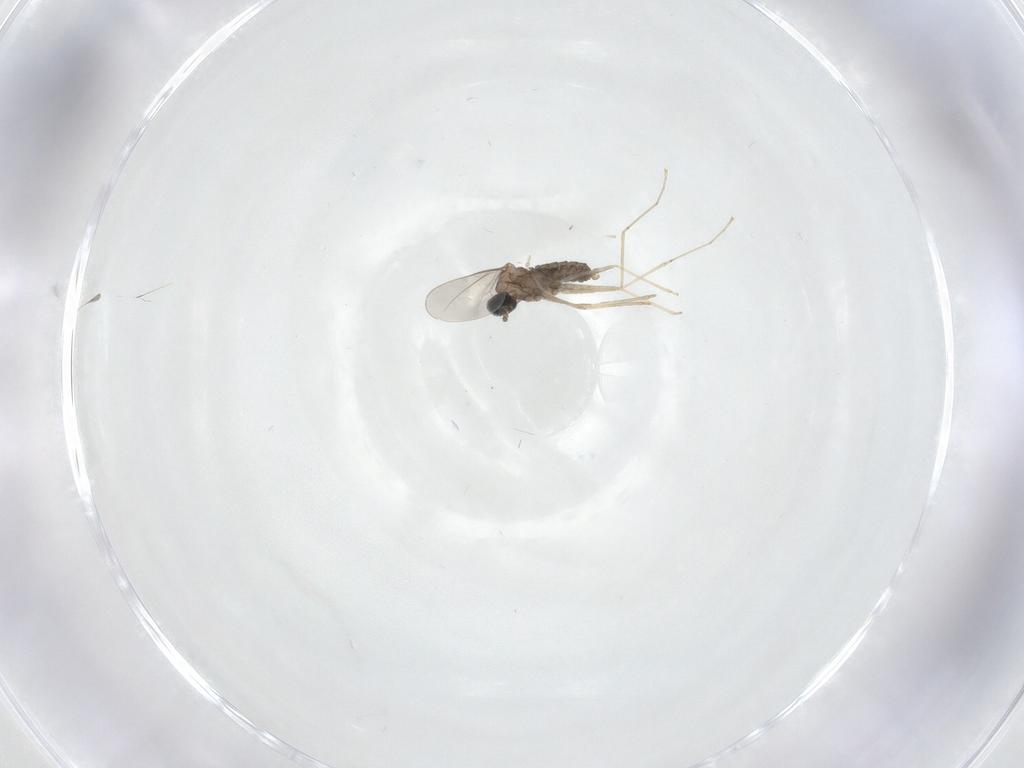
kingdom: Animalia
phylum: Arthropoda
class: Insecta
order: Diptera
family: Cecidomyiidae
